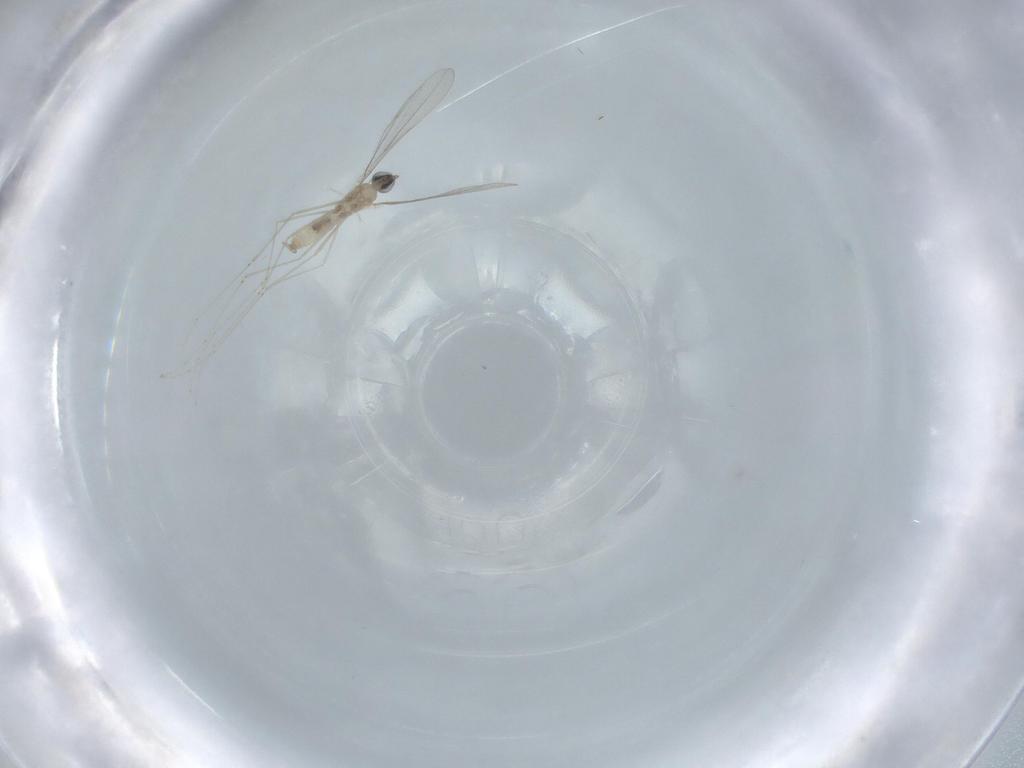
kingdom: Animalia
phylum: Arthropoda
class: Insecta
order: Diptera
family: Cecidomyiidae
